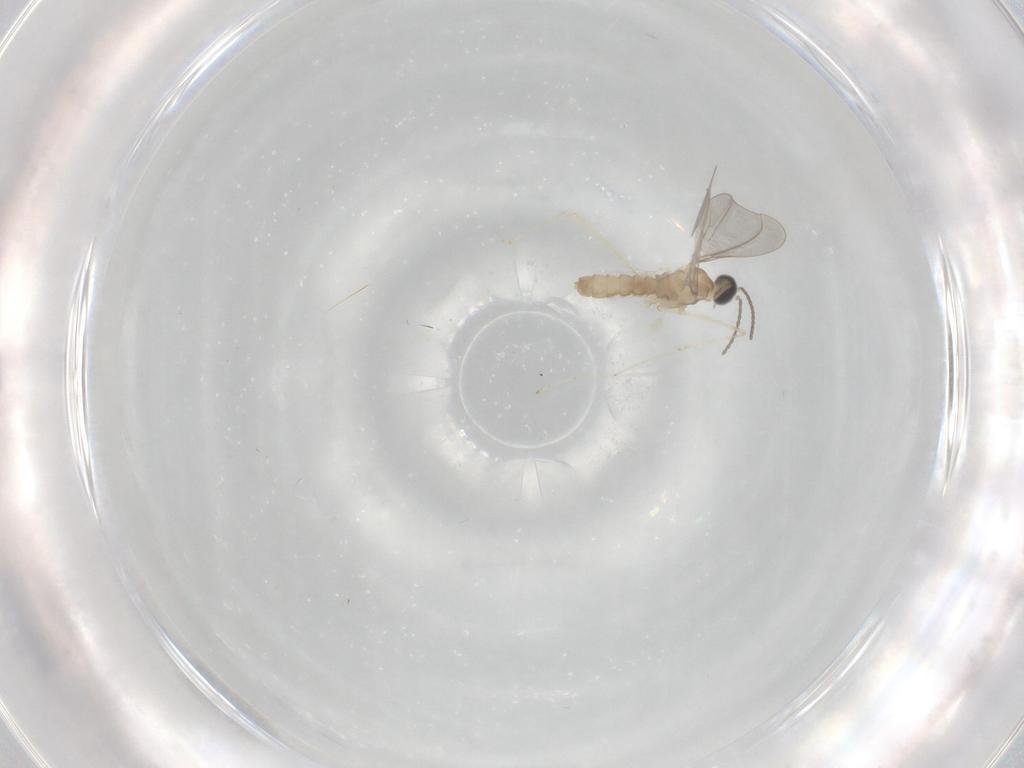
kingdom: Animalia
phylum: Arthropoda
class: Insecta
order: Diptera
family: Cecidomyiidae
